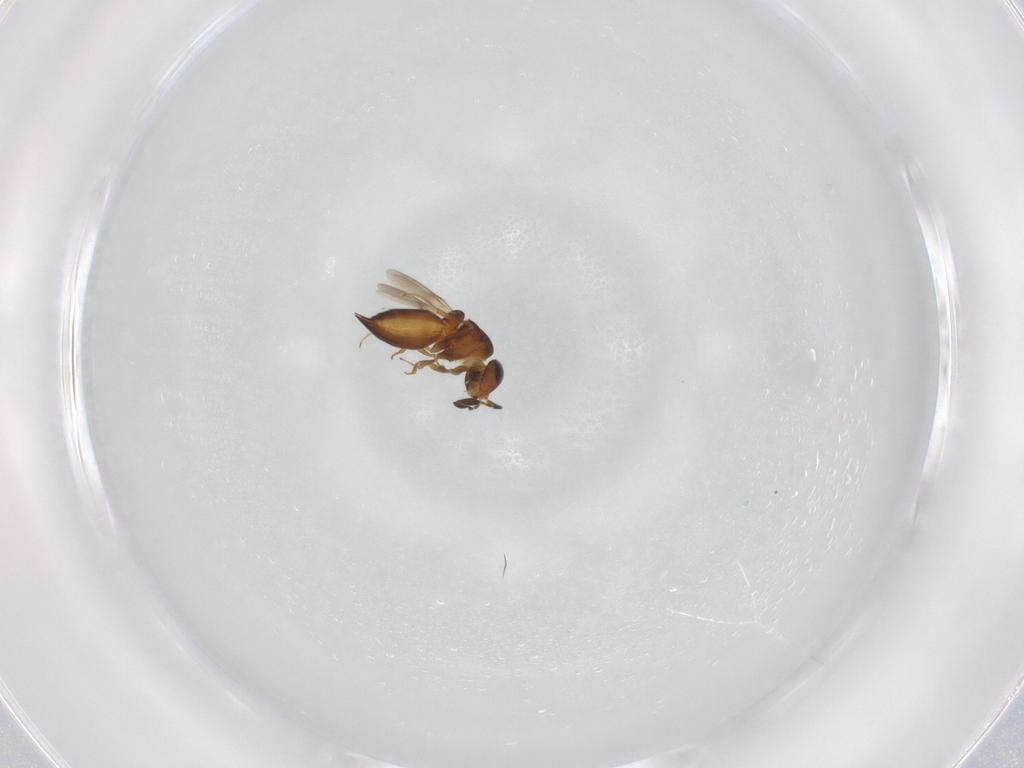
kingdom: Animalia
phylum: Arthropoda
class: Insecta
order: Hymenoptera
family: Scelionidae
